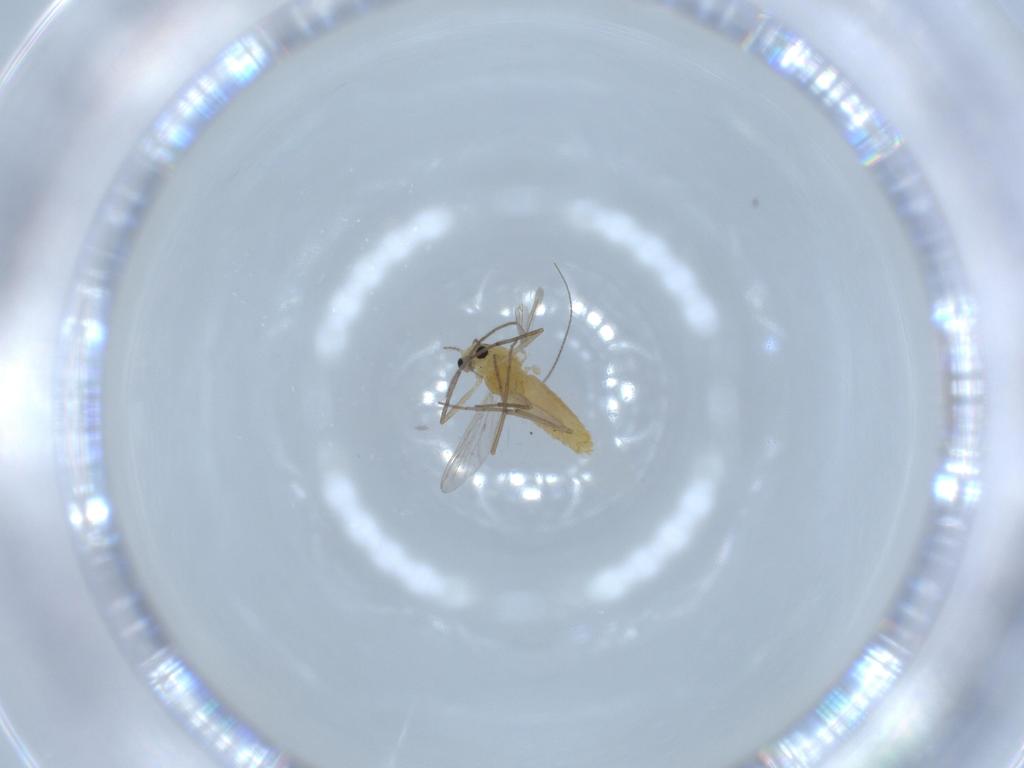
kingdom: Animalia
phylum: Arthropoda
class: Insecta
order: Diptera
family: Chironomidae
